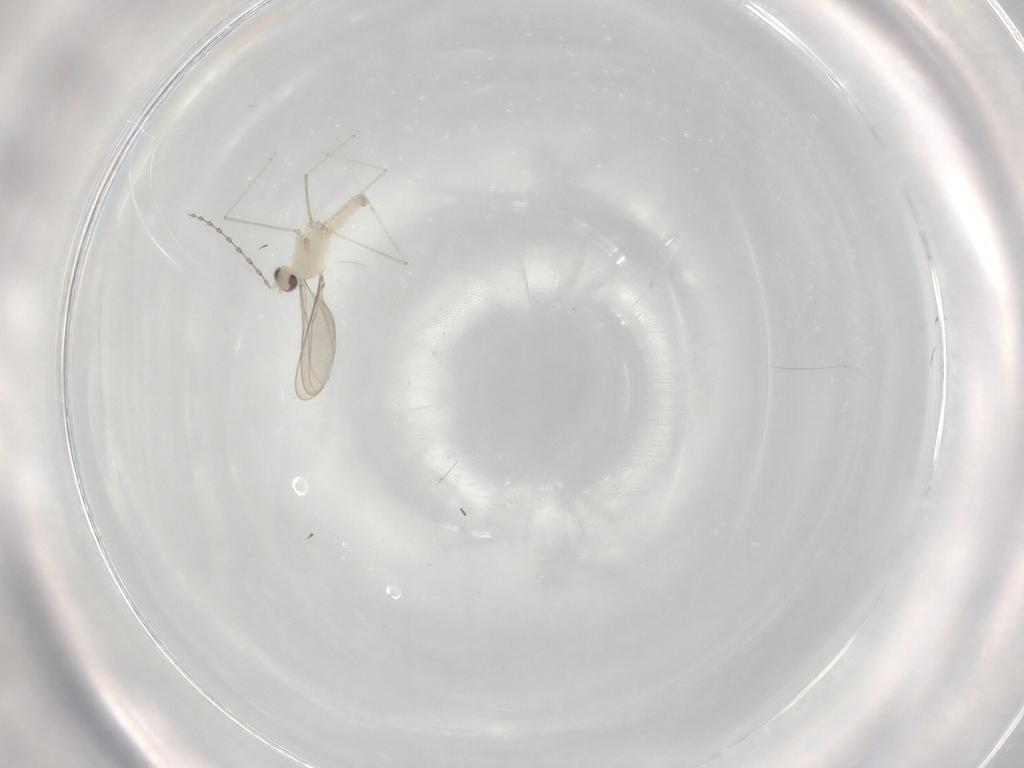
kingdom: Animalia
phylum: Arthropoda
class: Insecta
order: Diptera
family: Cecidomyiidae
